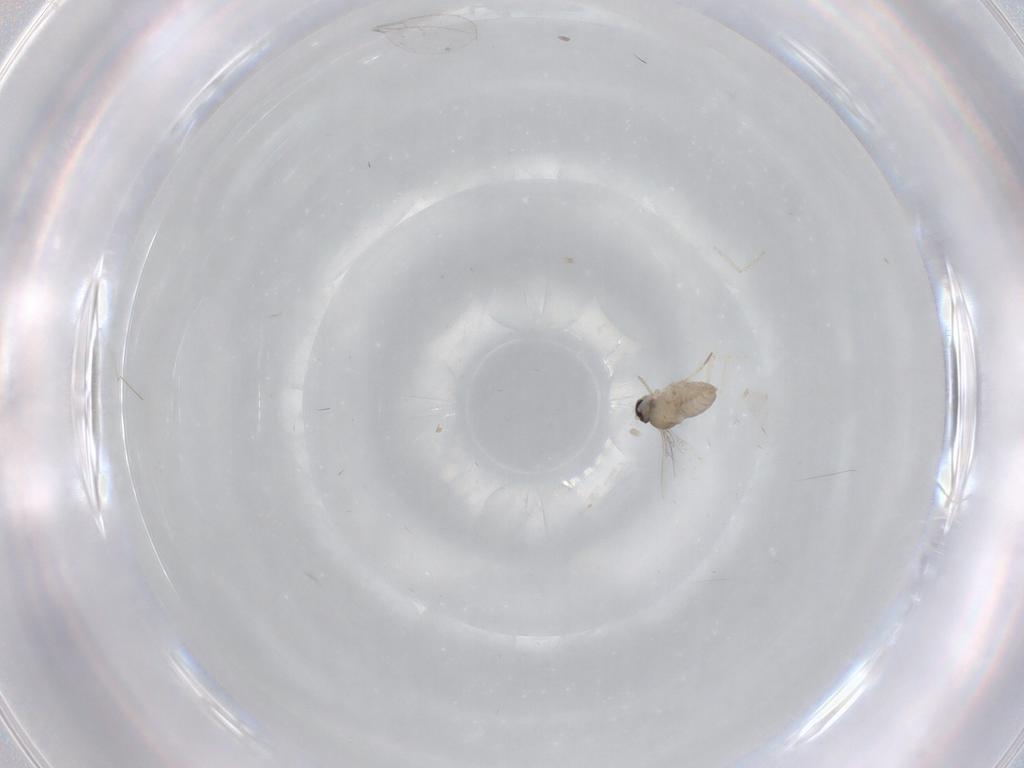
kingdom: Animalia
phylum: Arthropoda
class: Insecta
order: Diptera
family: Cecidomyiidae
